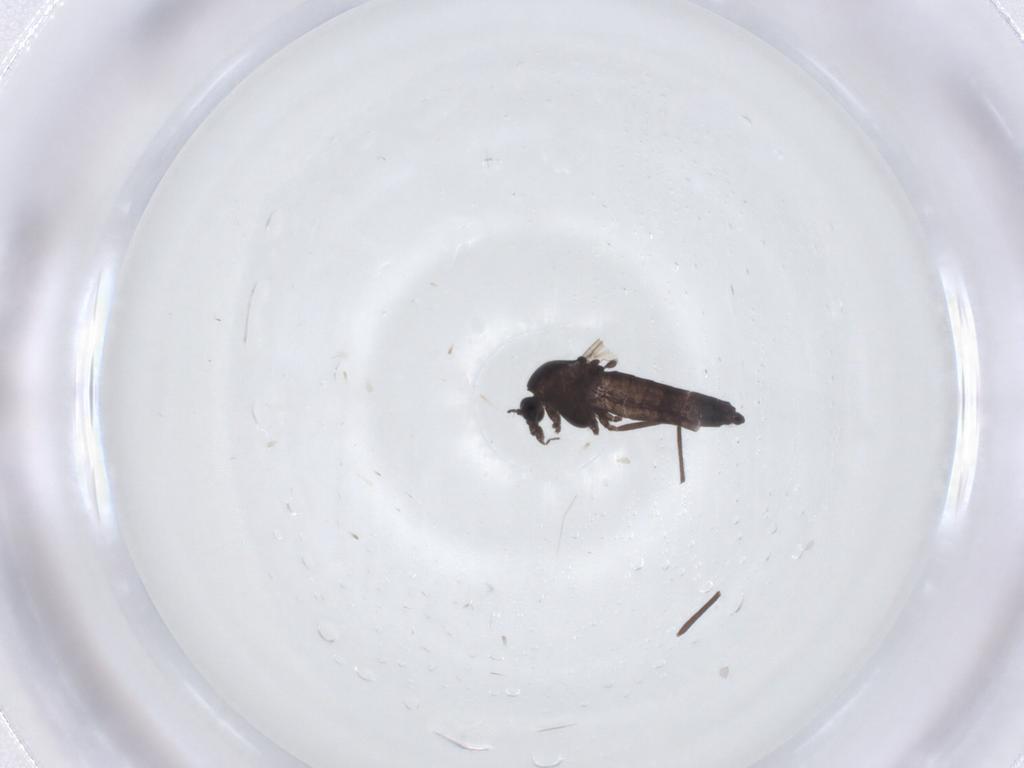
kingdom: Animalia
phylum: Arthropoda
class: Insecta
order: Diptera
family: Chironomidae
